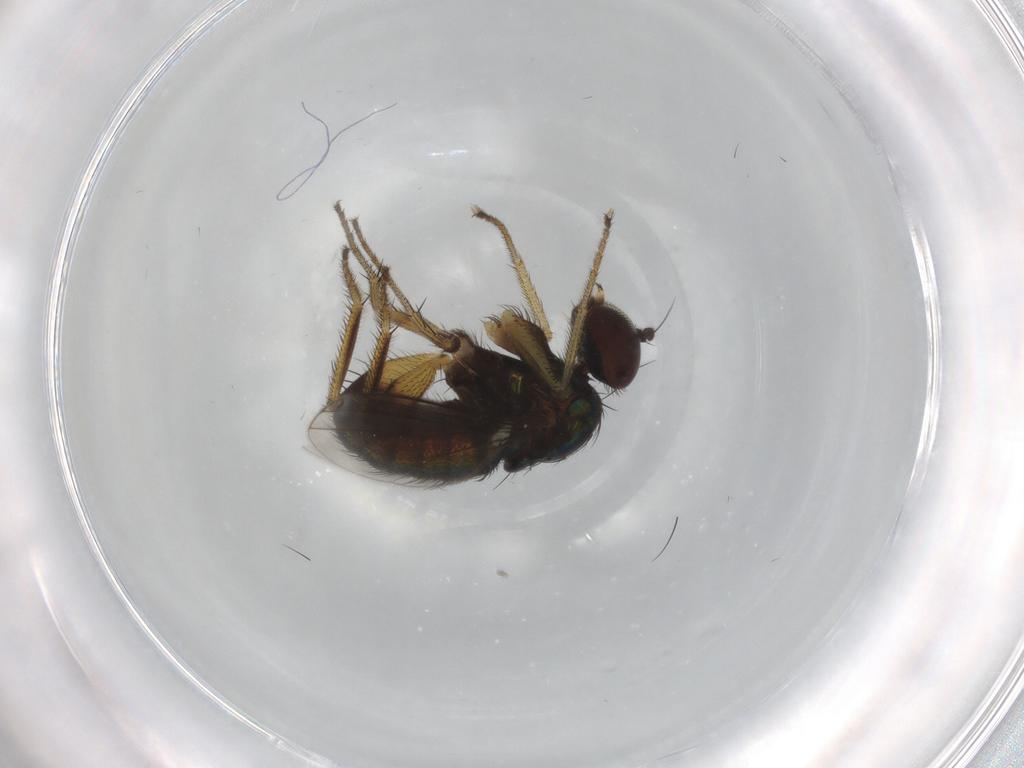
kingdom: Animalia
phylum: Arthropoda
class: Insecta
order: Diptera
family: Dolichopodidae
